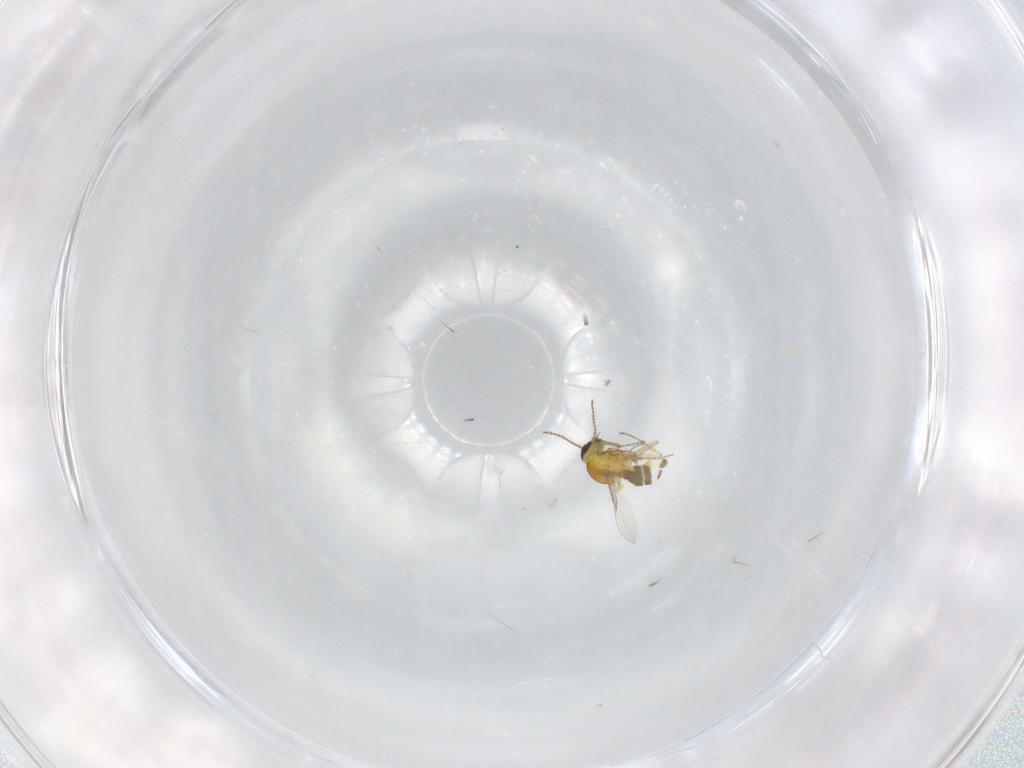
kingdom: Animalia
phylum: Arthropoda
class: Insecta
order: Diptera
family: Ceratopogonidae
